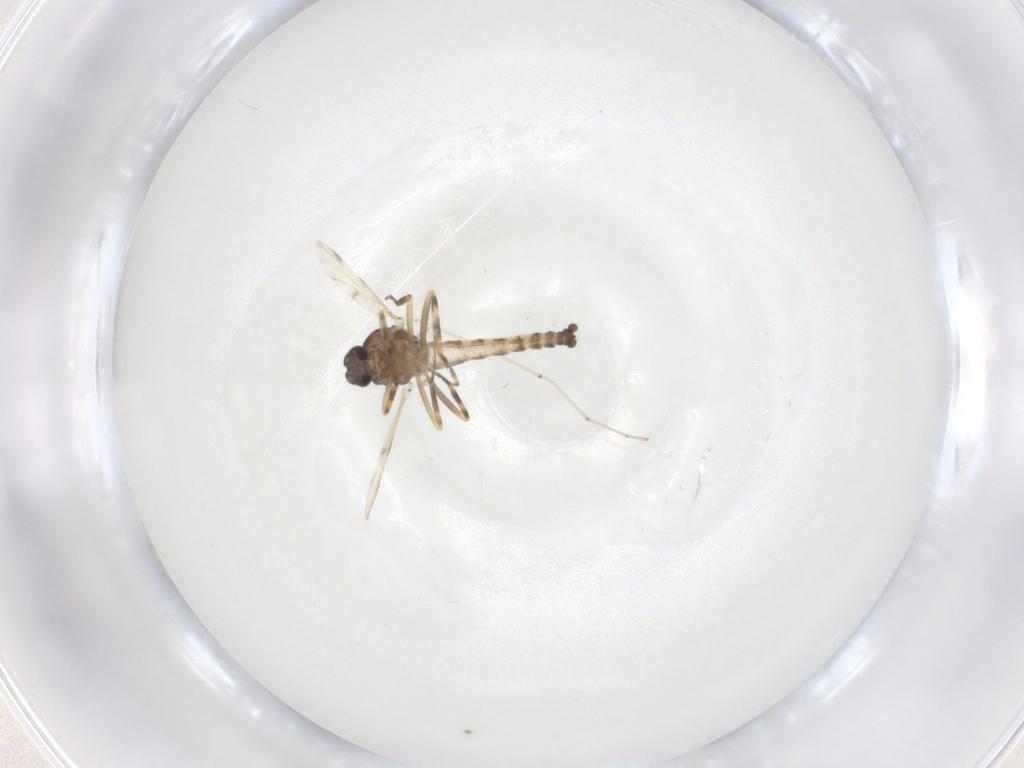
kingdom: Animalia
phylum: Arthropoda
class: Insecta
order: Diptera
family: Ceratopogonidae
